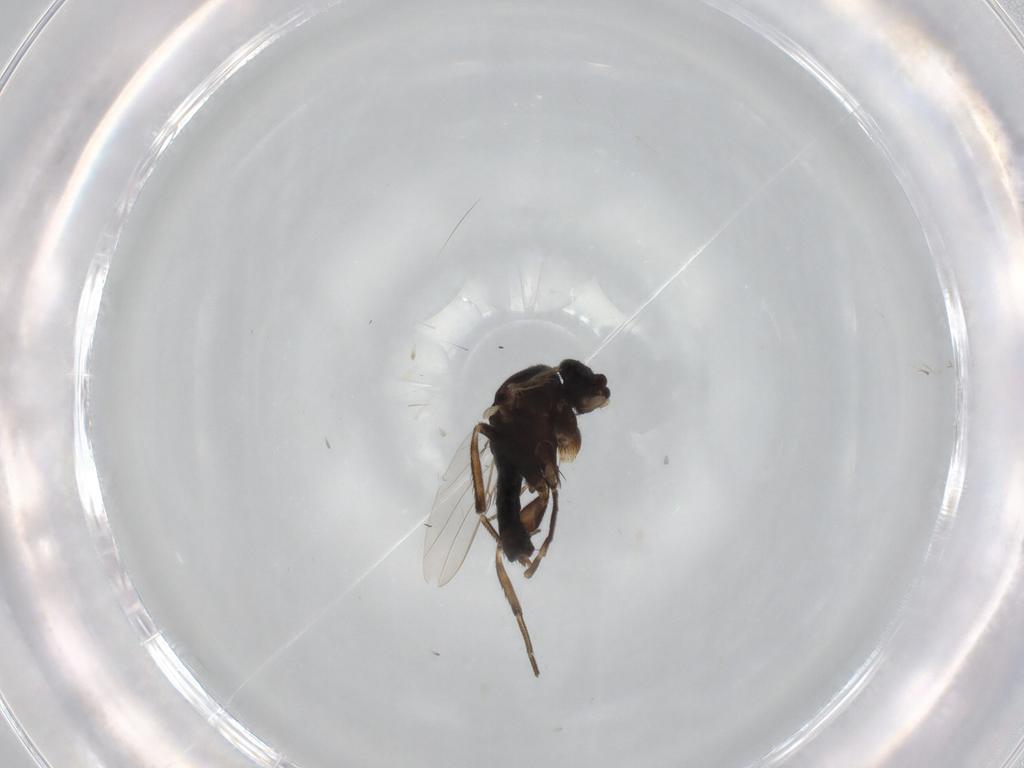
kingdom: Animalia
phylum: Arthropoda
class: Insecta
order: Diptera
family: Phoridae
